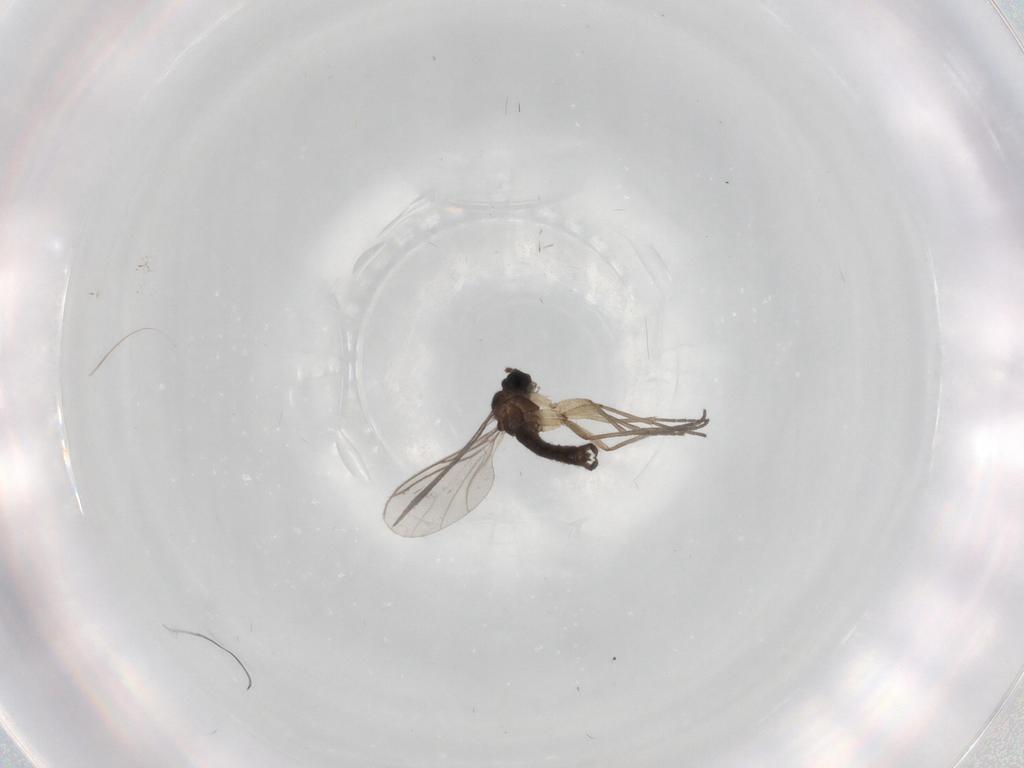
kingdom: Animalia
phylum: Arthropoda
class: Insecta
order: Diptera
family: Sciaridae
